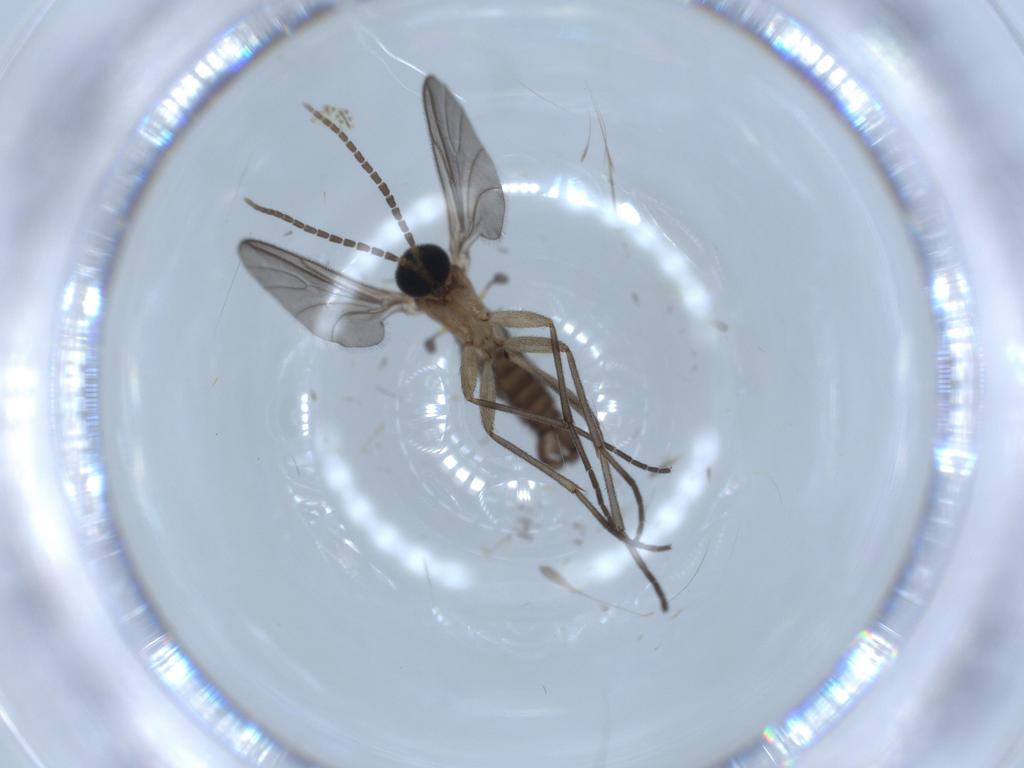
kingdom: Animalia
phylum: Arthropoda
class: Insecta
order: Diptera
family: Sciaridae
